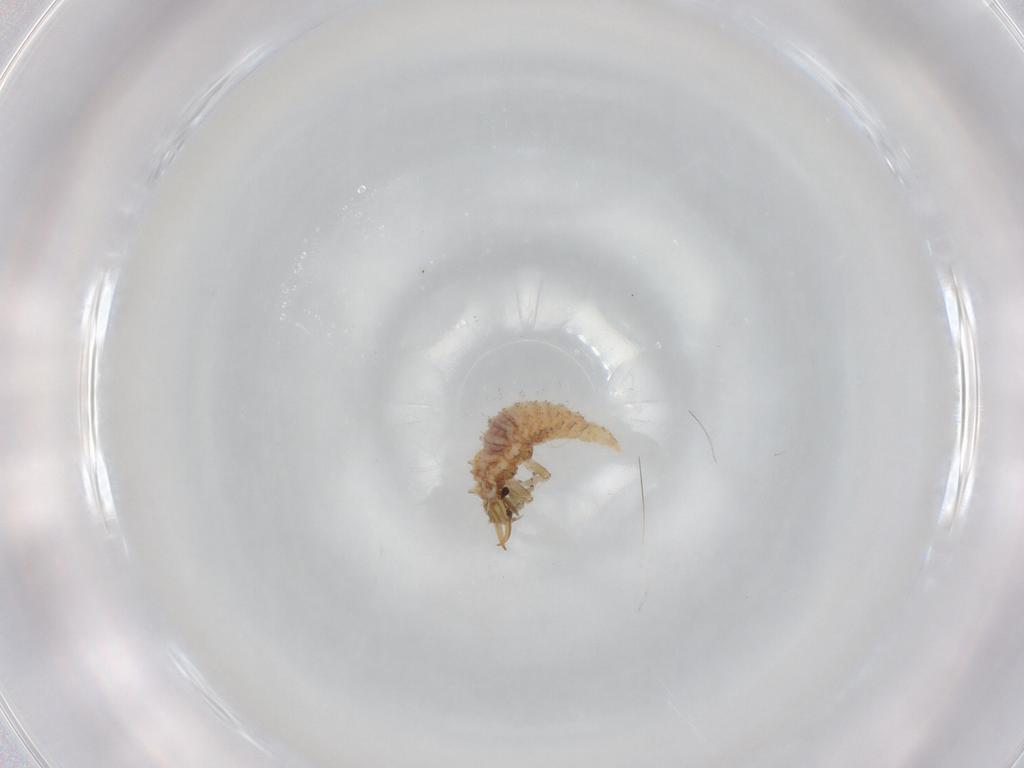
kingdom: Animalia
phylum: Arthropoda
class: Insecta
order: Neuroptera
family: Chrysopidae
